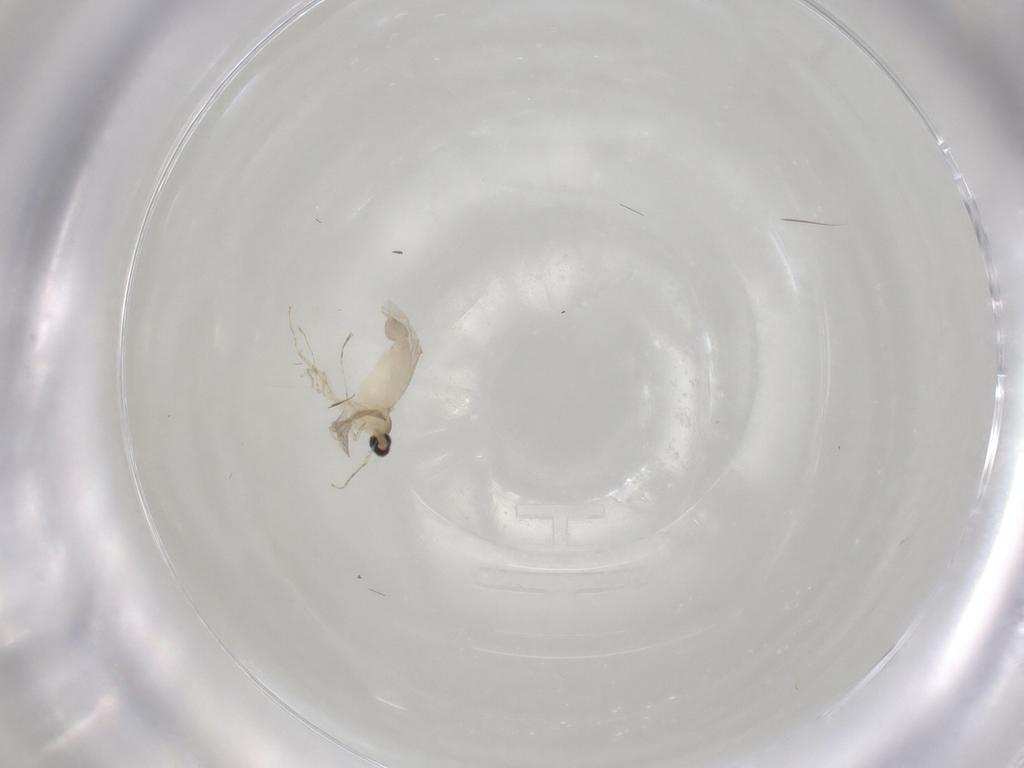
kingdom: Animalia
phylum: Arthropoda
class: Insecta
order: Diptera
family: Cecidomyiidae
